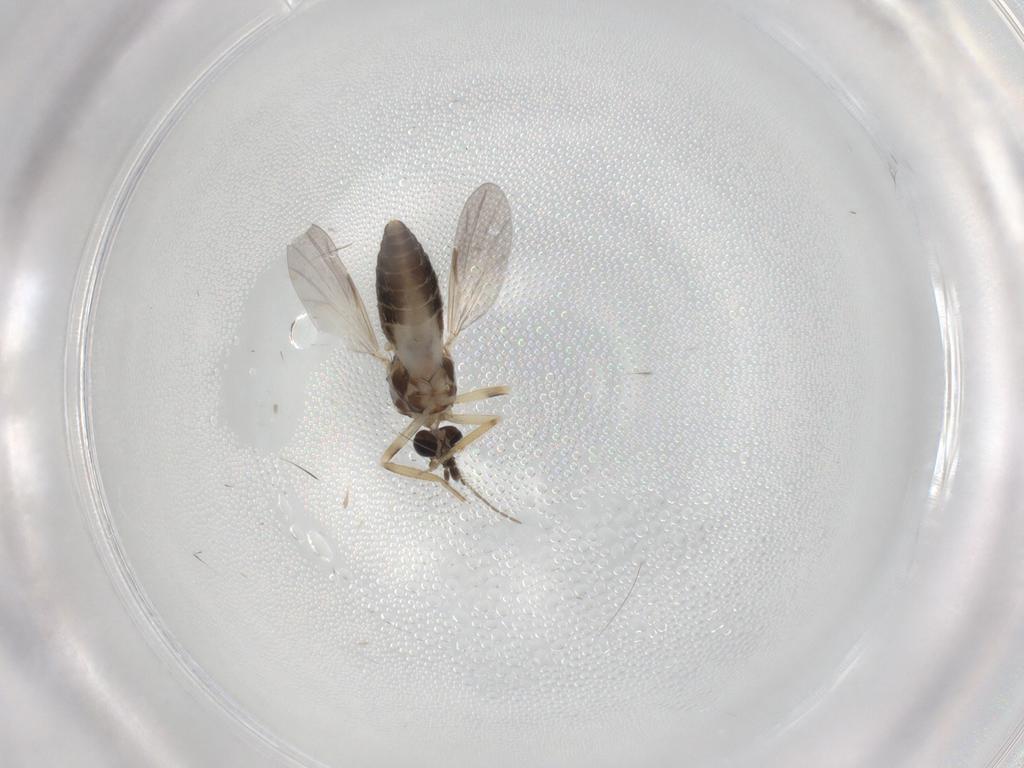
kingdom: Animalia
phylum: Arthropoda
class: Insecta
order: Diptera
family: Ceratopogonidae
